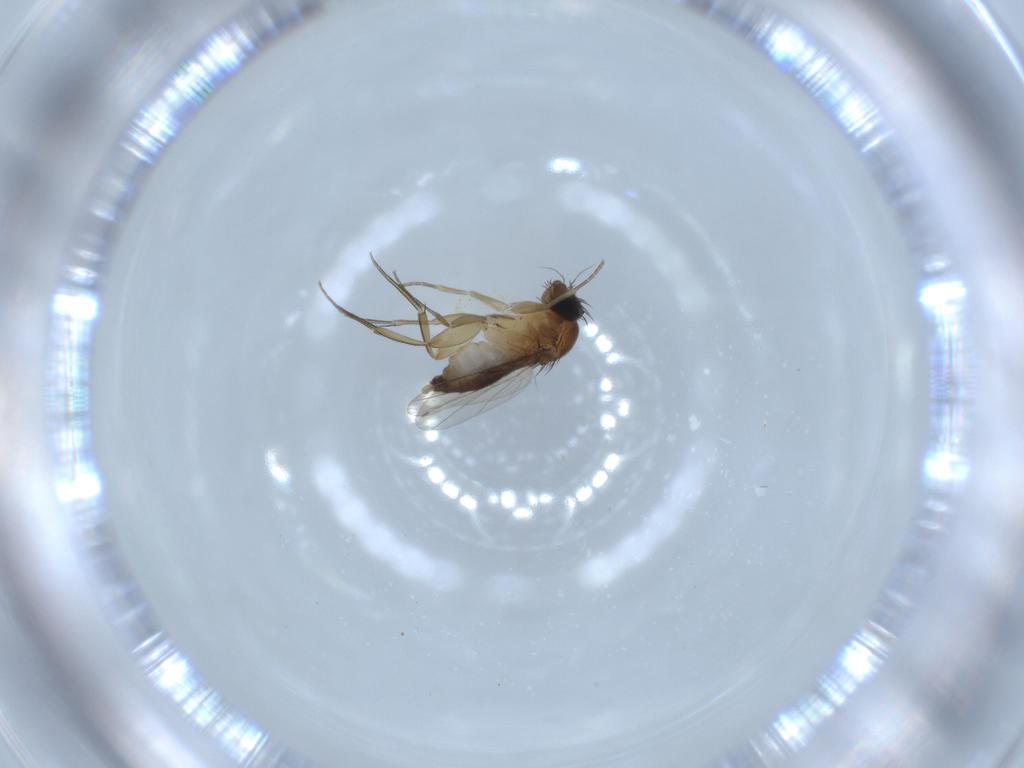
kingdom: Animalia
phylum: Arthropoda
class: Insecta
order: Diptera
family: Phoridae
